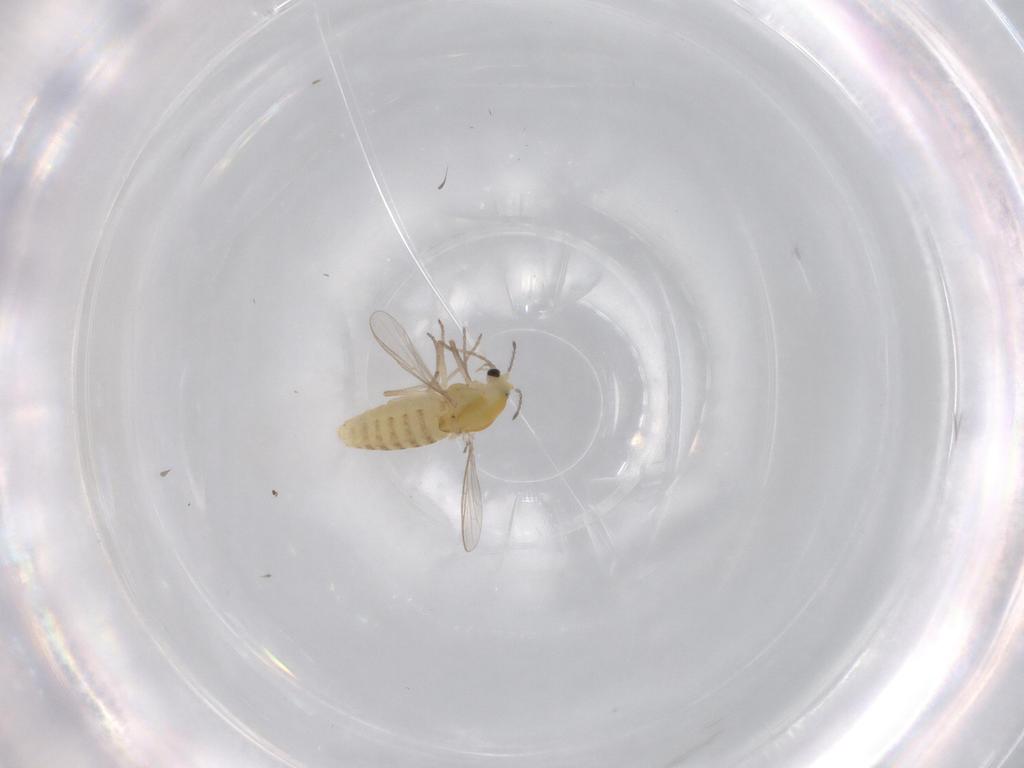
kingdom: Animalia
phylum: Arthropoda
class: Insecta
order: Diptera
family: Chironomidae
